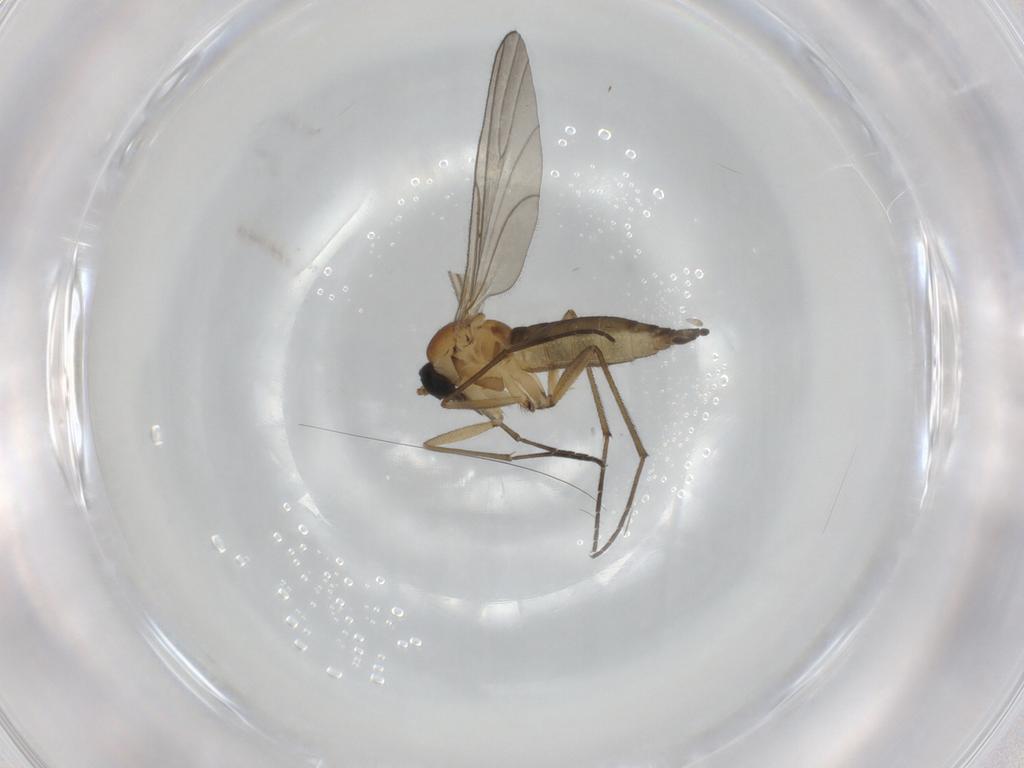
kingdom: Animalia
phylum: Arthropoda
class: Insecta
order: Diptera
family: Sciaridae
